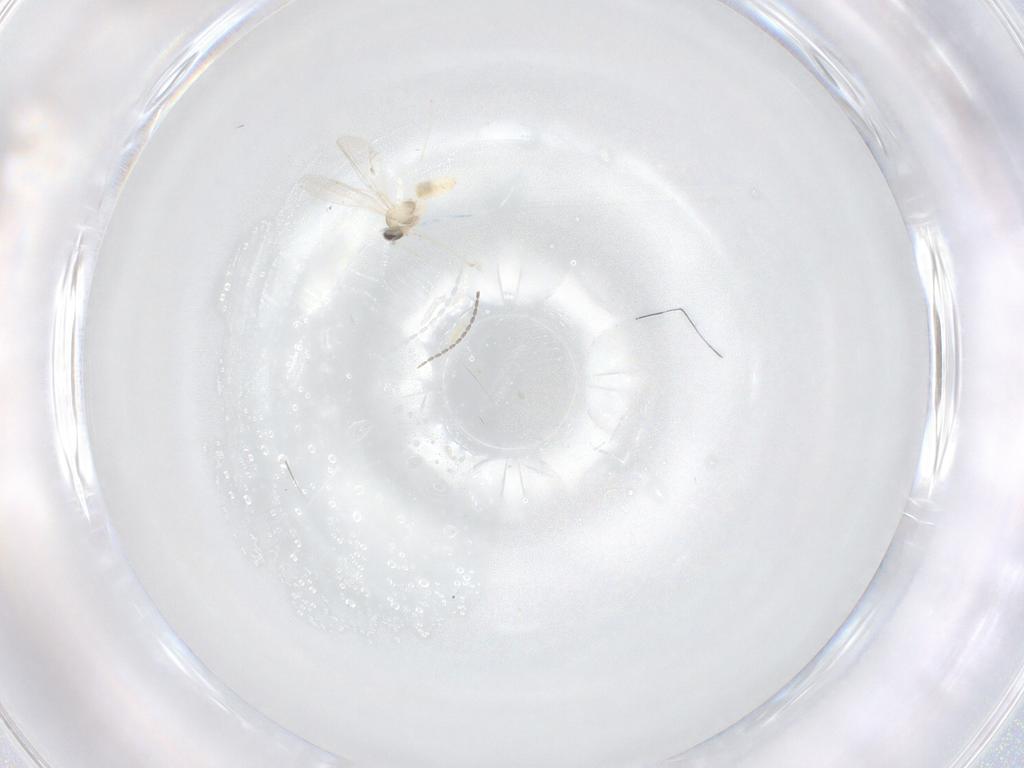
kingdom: Animalia
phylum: Arthropoda
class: Insecta
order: Diptera
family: Cecidomyiidae
